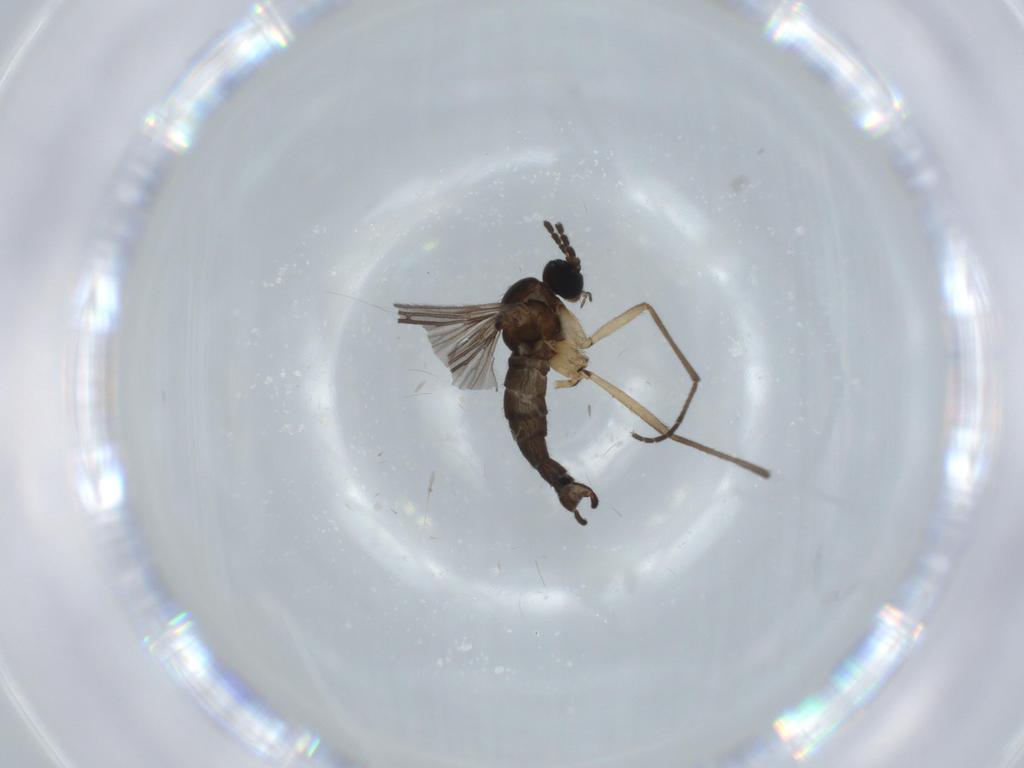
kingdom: Animalia
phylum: Arthropoda
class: Insecta
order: Diptera
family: Sciaridae
